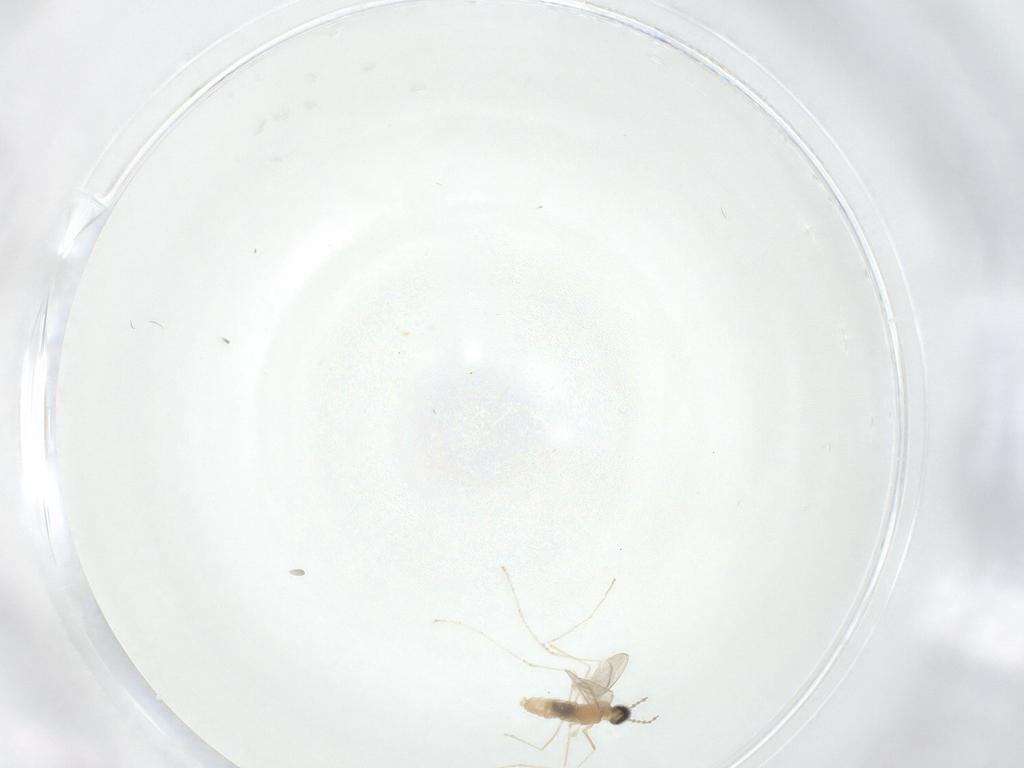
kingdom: Animalia
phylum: Arthropoda
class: Insecta
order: Diptera
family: Sphaeroceridae
